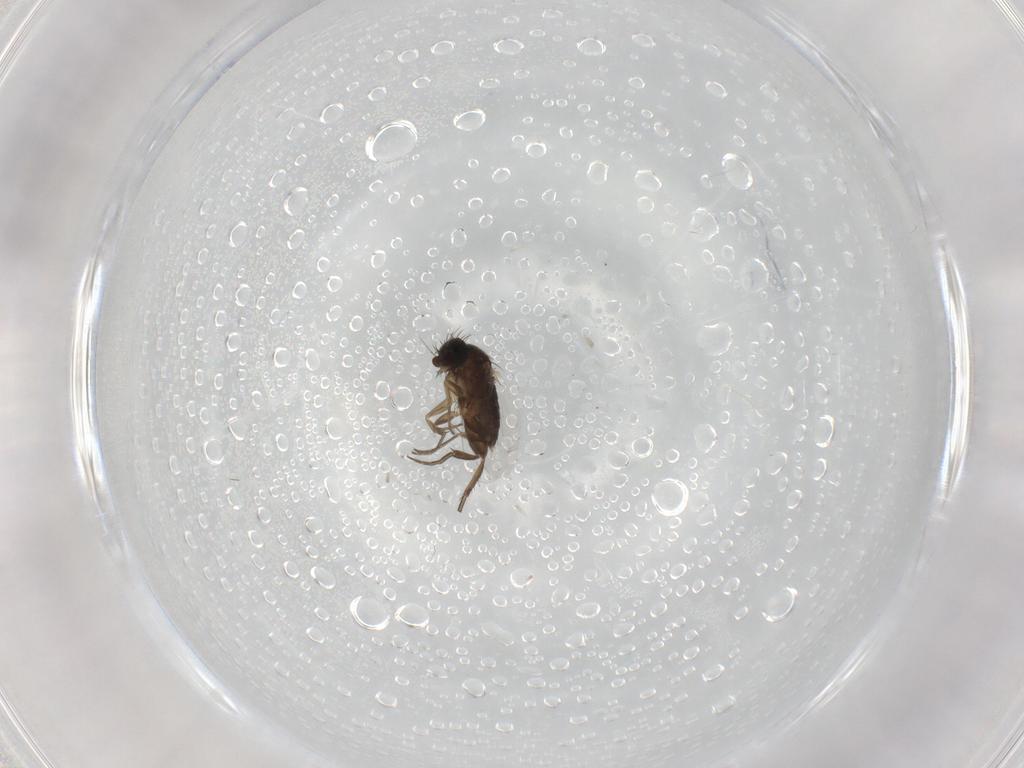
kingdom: Animalia
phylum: Arthropoda
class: Insecta
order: Diptera
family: Phoridae
